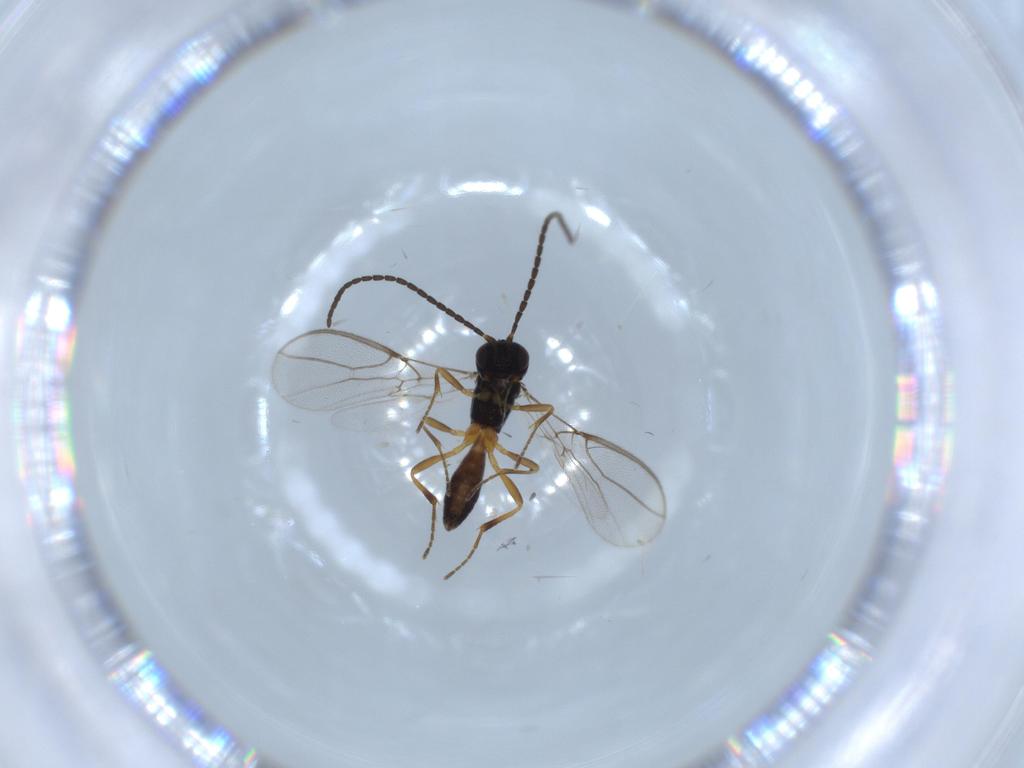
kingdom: Animalia
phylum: Arthropoda
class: Insecta
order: Hymenoptera
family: Braconidae
